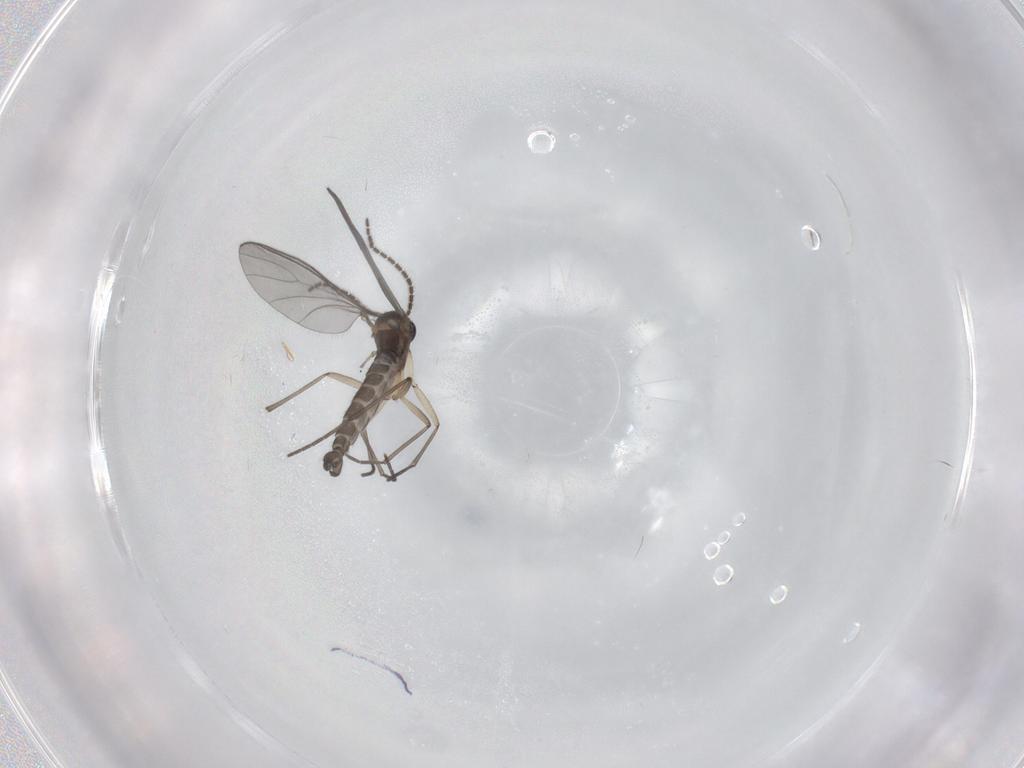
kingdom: Animalia
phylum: Arthropoda
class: Insecta
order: Diptera
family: Sciaridae
